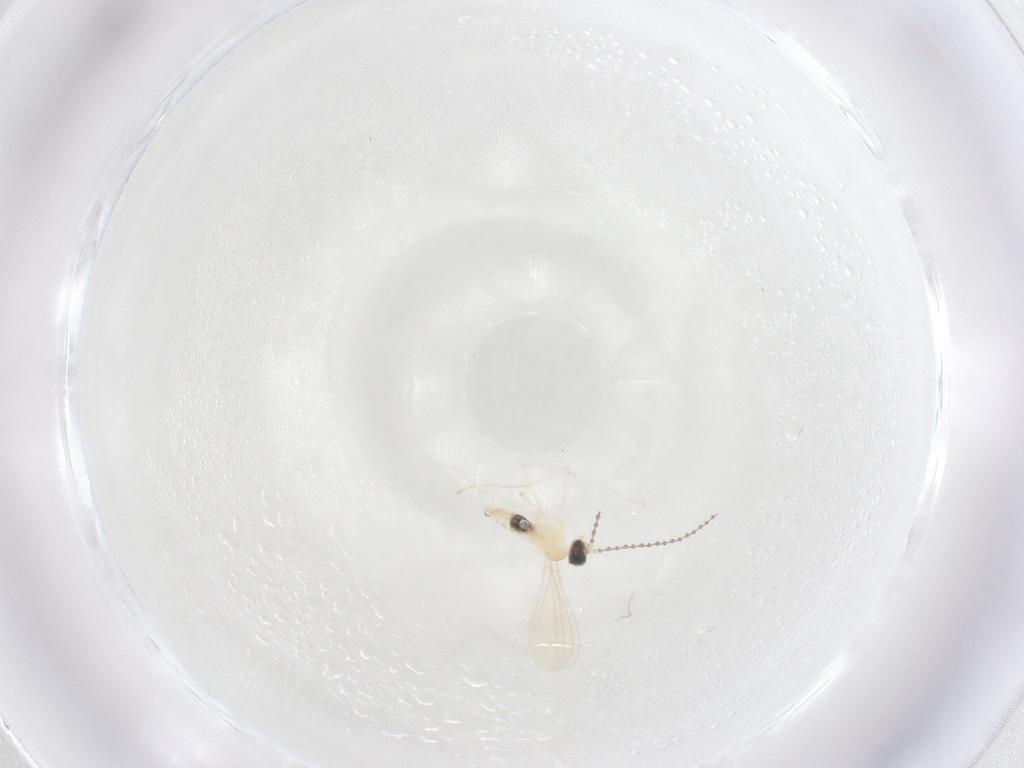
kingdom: Animalia
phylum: Arthropoda
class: Insecta
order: Diptera
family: Cecidomyiidae
